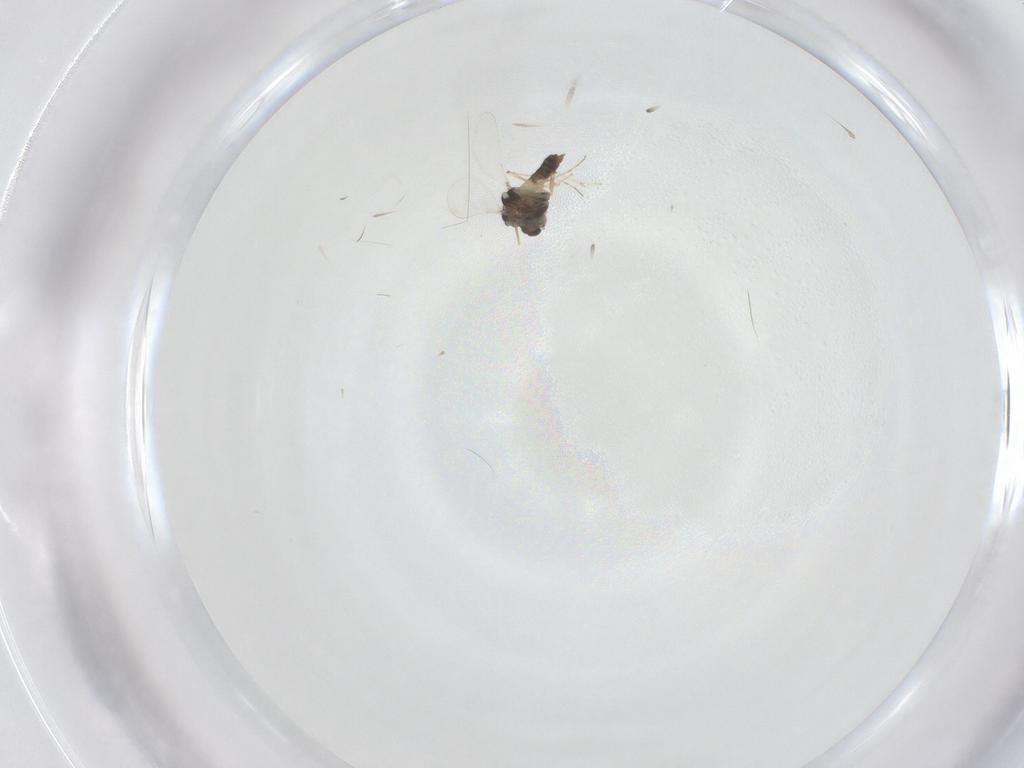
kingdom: Animalia
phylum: Arthropoda
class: Insecta
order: Diptera
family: Chironomidae
